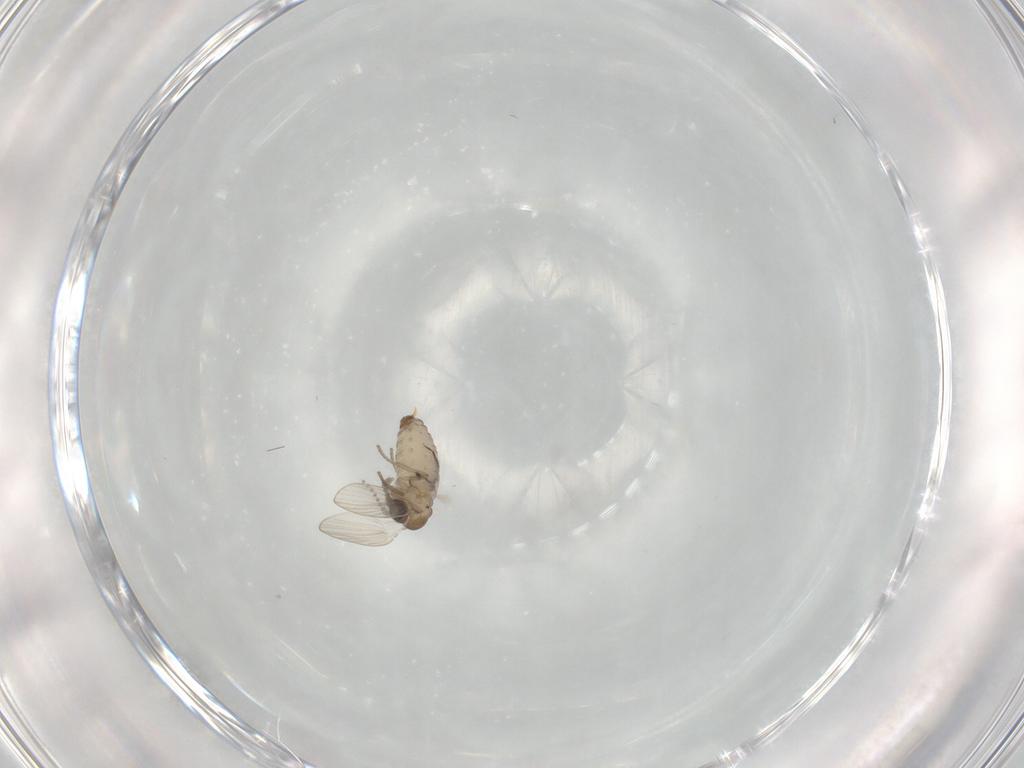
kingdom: Animalia
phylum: Arthropoda
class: Insecta
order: Diptera
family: Psychodidae
